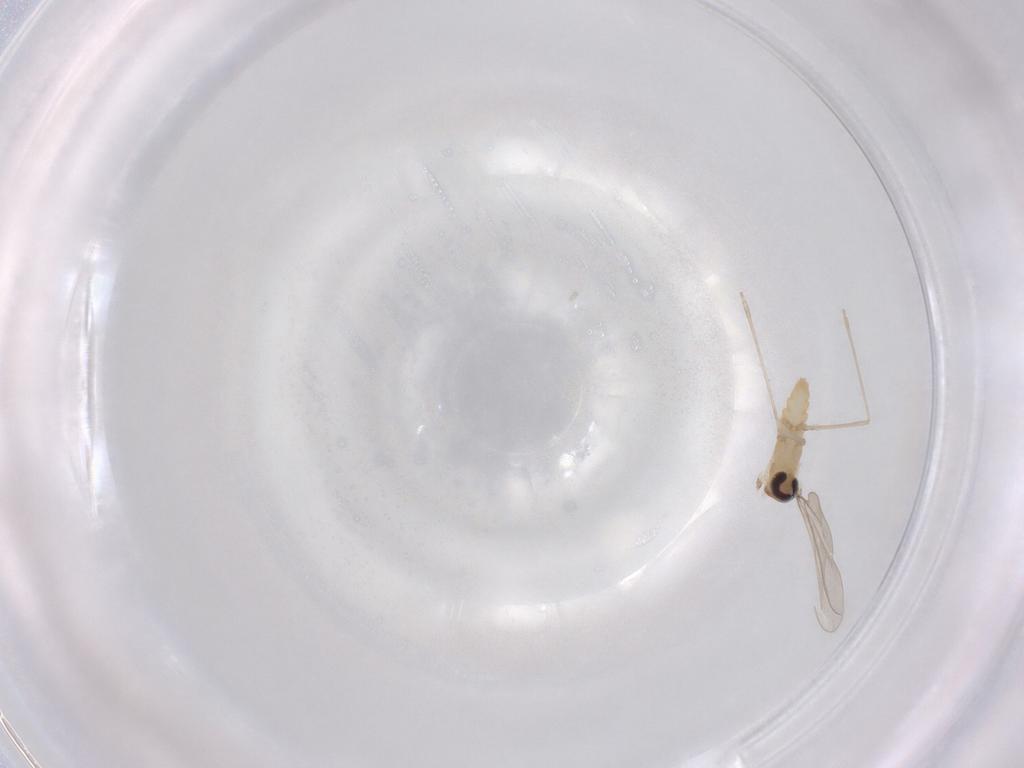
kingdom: Animalia
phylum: Arthropoda
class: Insecta
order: Diptera
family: Cecidomyiidae
